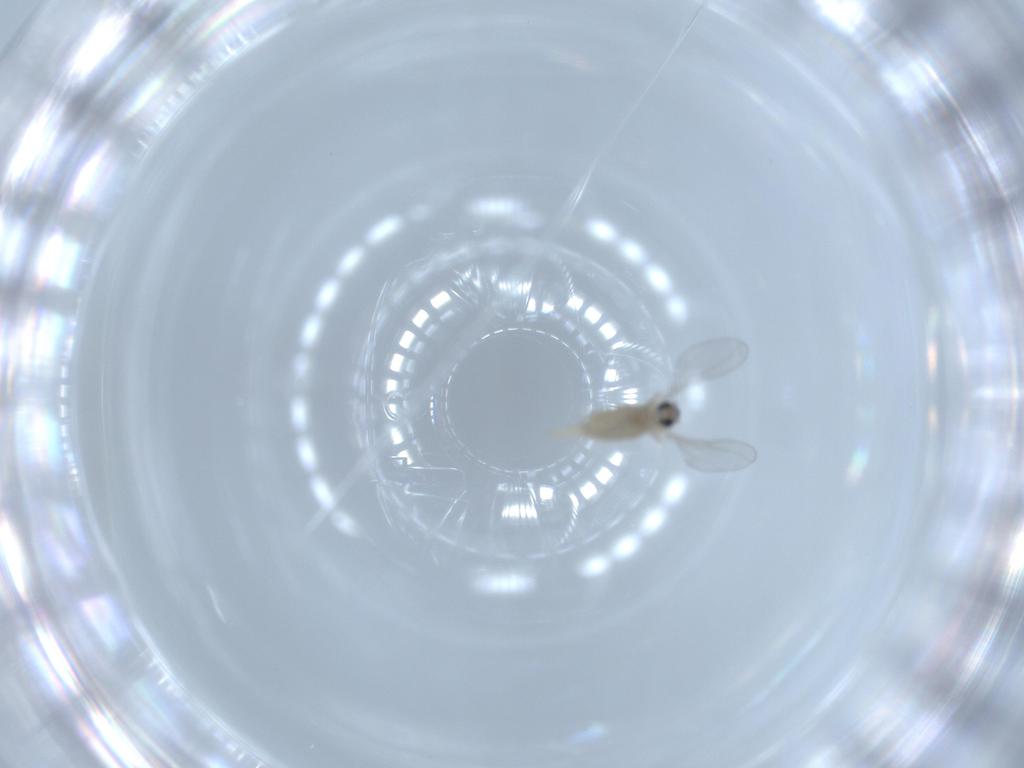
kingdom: Animalia
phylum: Arthropoda
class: Insecta
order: Diptera
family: Cecidomyiidae
